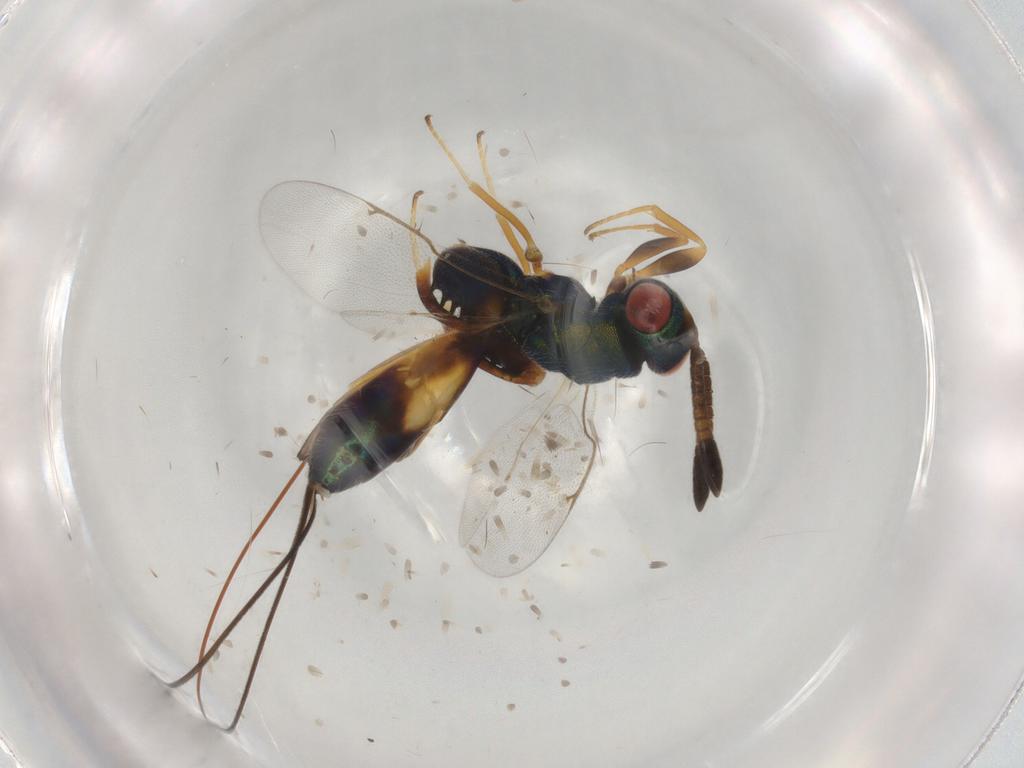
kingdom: Animalia
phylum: Arthropoda
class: Insecta
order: Hymenoptera
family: Torymidae
